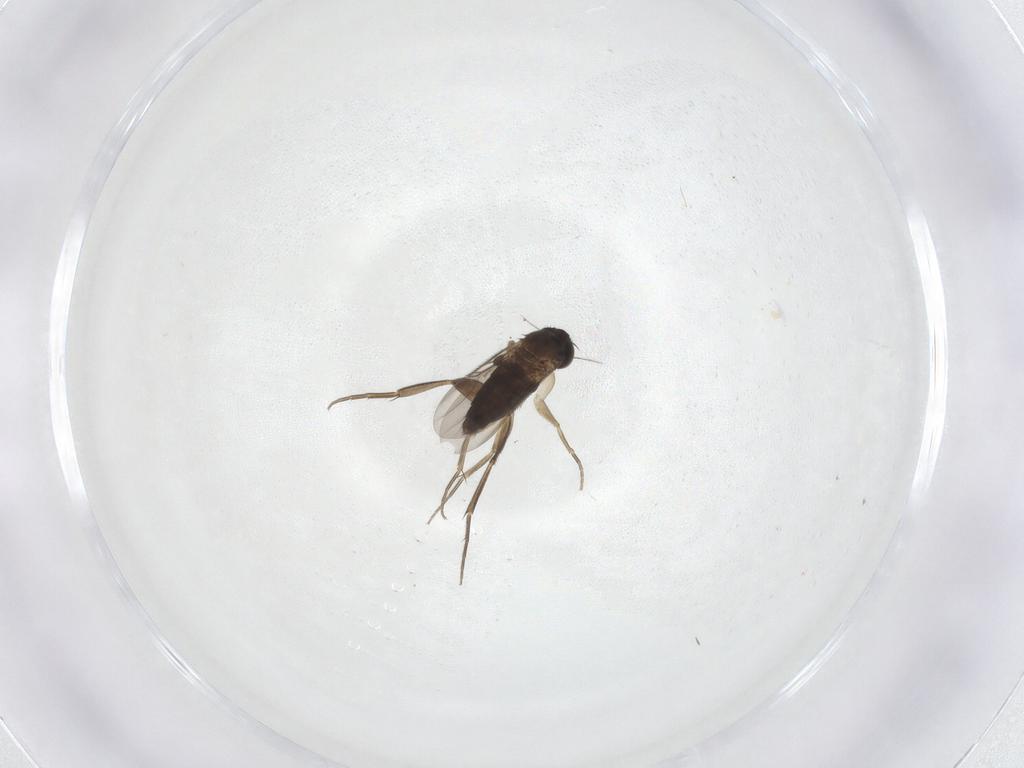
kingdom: Animalia
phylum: Arthropoda
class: Insecta
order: Diptera
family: Phoridae
